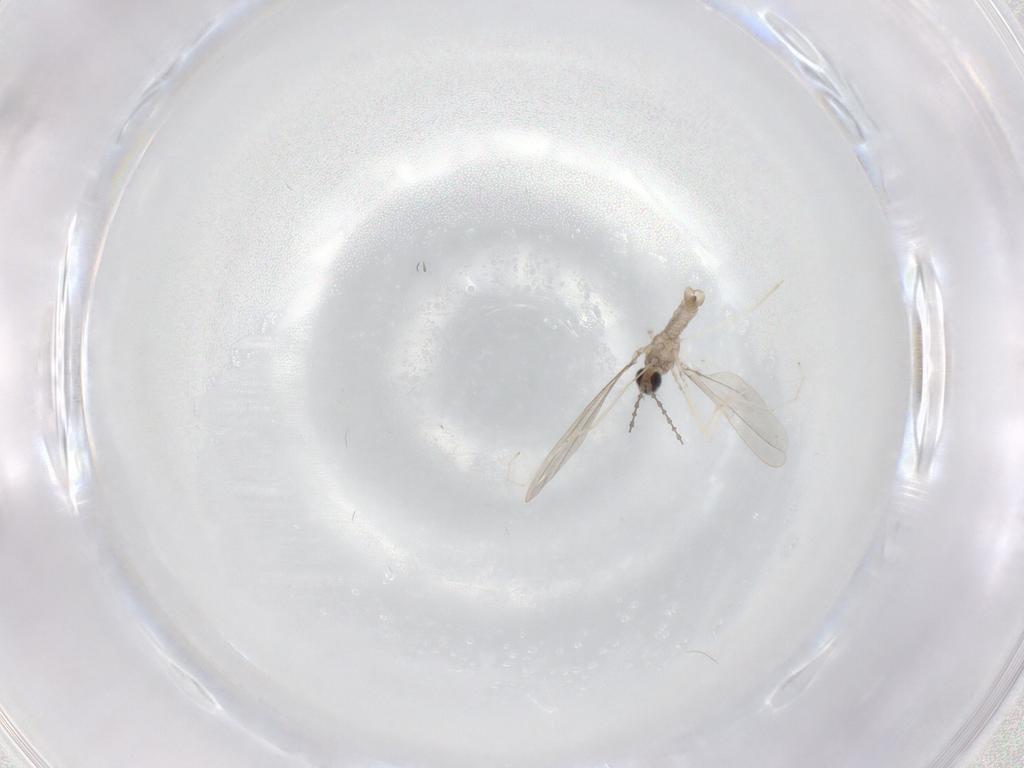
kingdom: Animalia
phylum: Arthropoda
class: Insecta
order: Diptera
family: Cecidomyiidae
